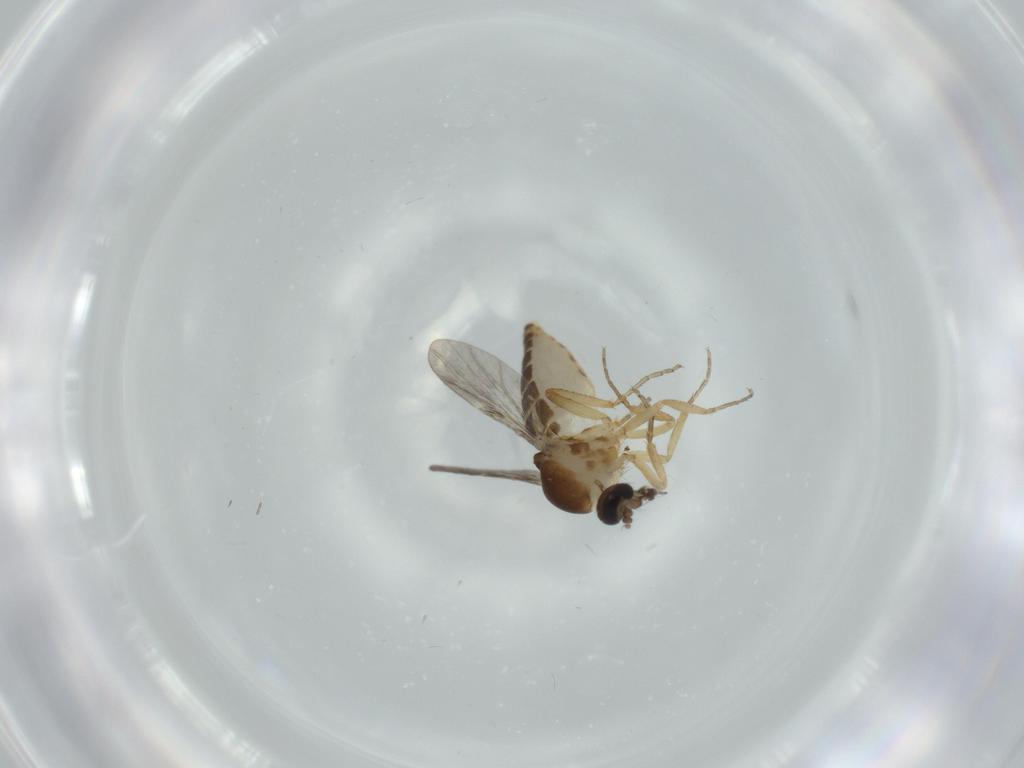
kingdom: Animalia
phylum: Arthropoda
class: Insecta
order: Diptera
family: Ceratopogonidae
